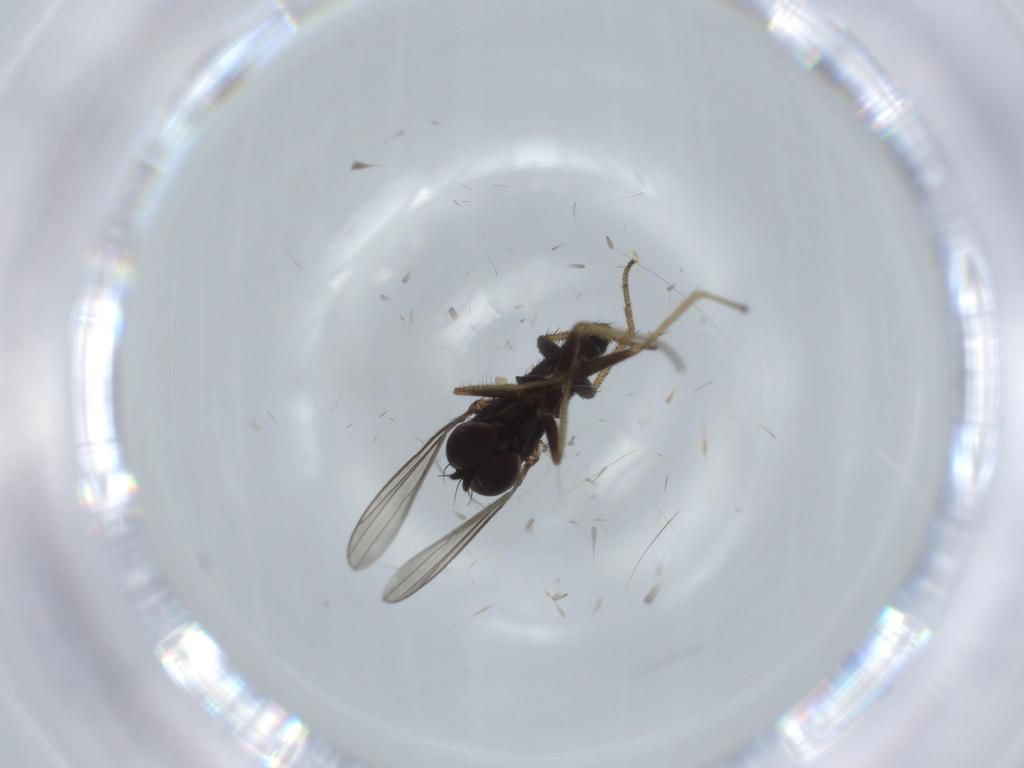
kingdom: Animalia
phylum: Arthropoda
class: Insecta
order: Diptera
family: Dolichopodidae
